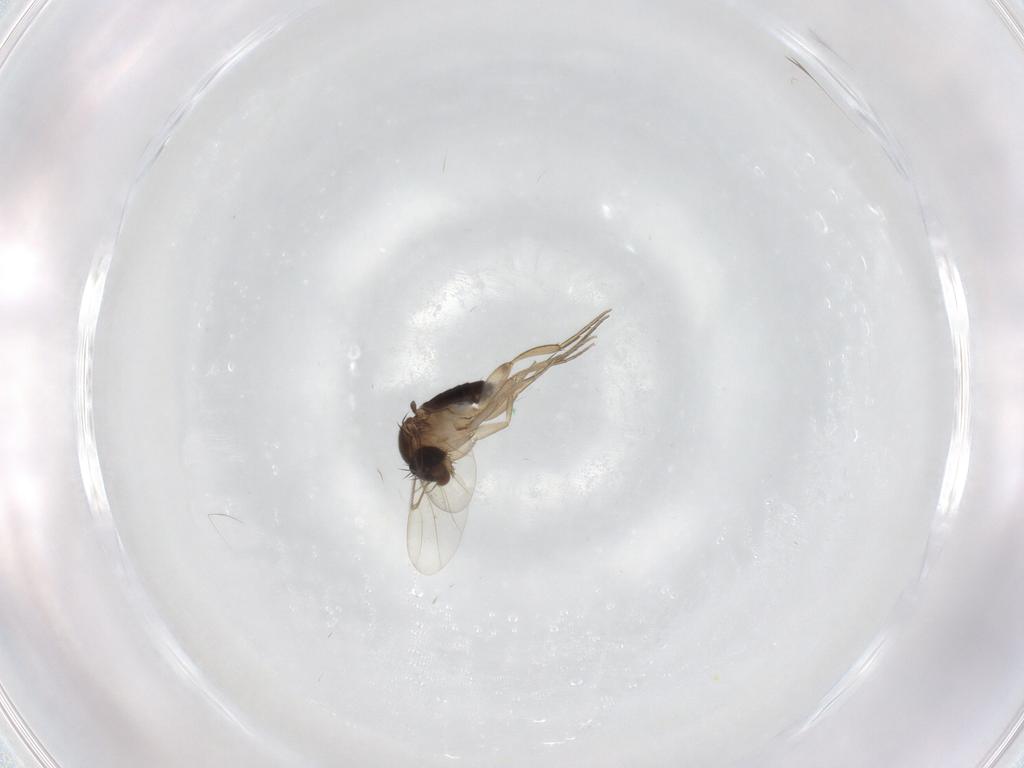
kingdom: Animalia
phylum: Arthropoda
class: Insecta
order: Diptera
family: Phoridae
